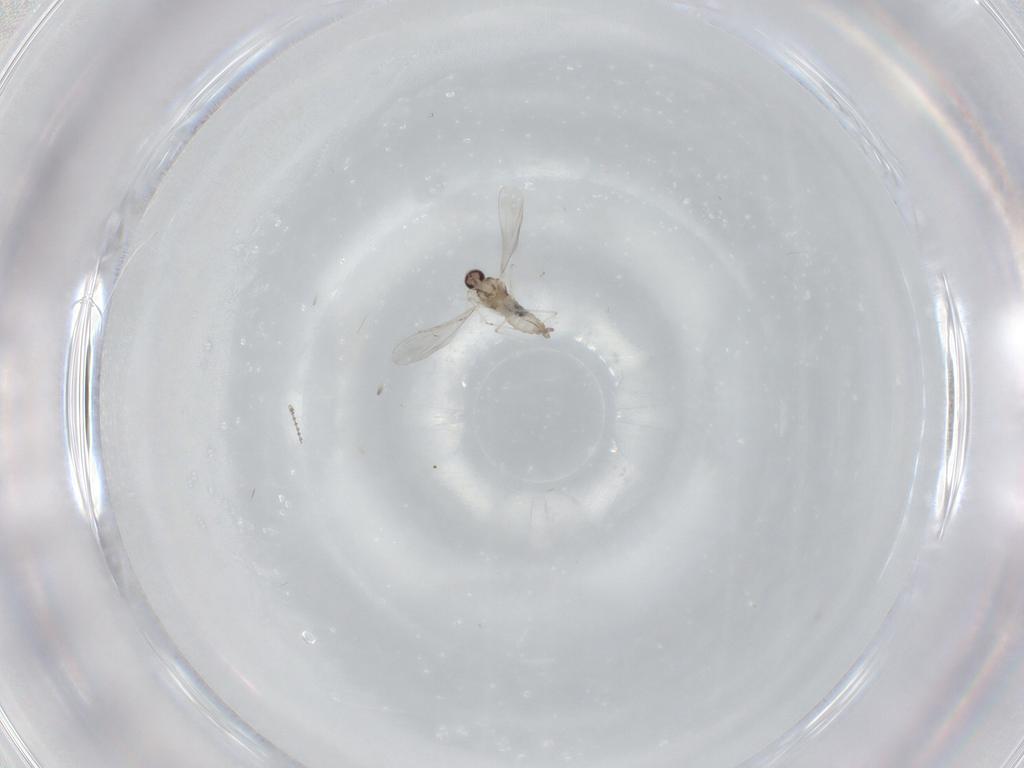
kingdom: Animalia
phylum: Arthropoda
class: Insecta
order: Diptera
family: Cecidomyiidae
